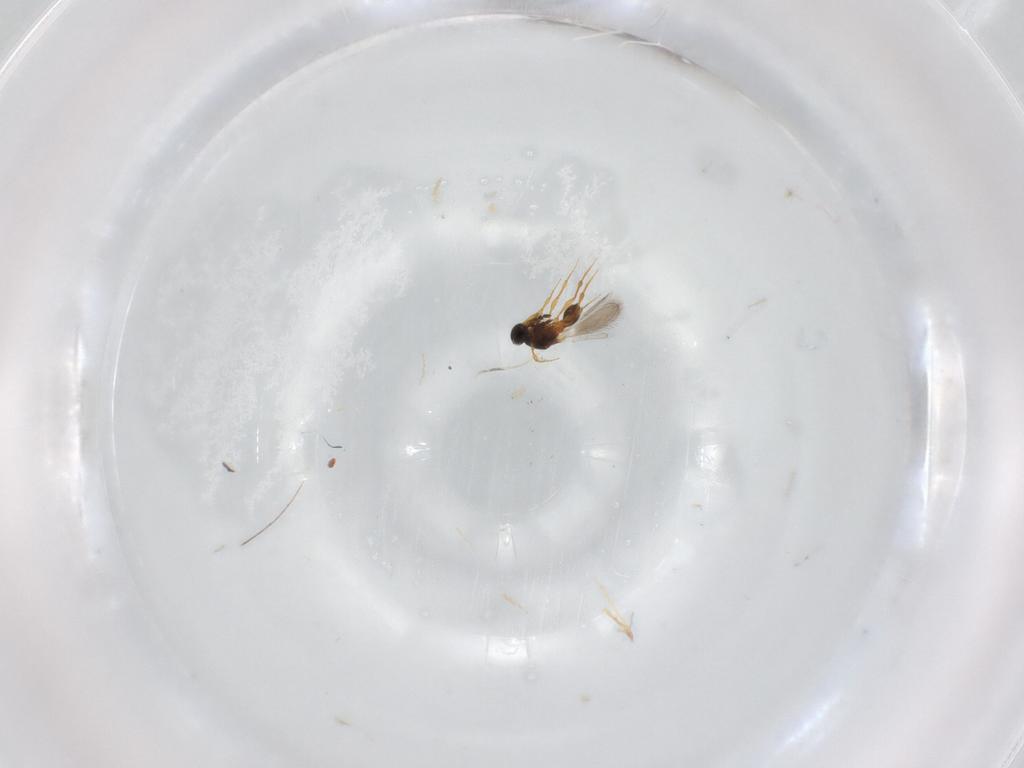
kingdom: Animalia
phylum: Arthropoda
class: Insecta
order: Hymenoptera
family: Platygastridae
